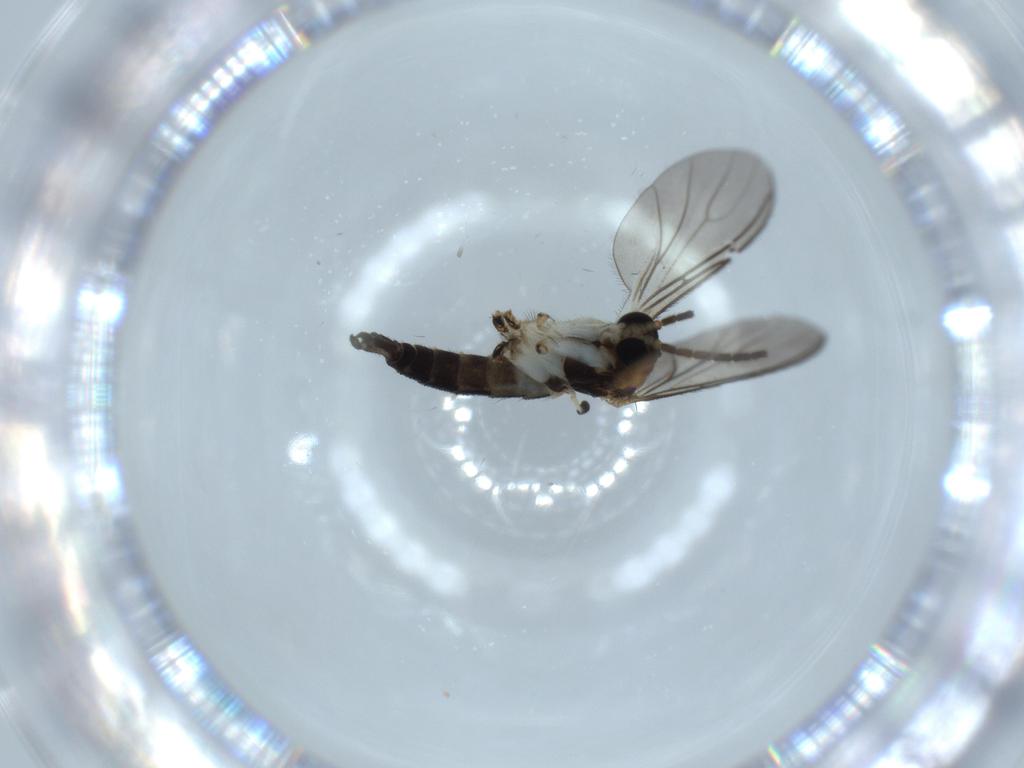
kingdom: Animalia
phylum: Arthropoda
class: Insecta
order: Diptera
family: Sciaridae
